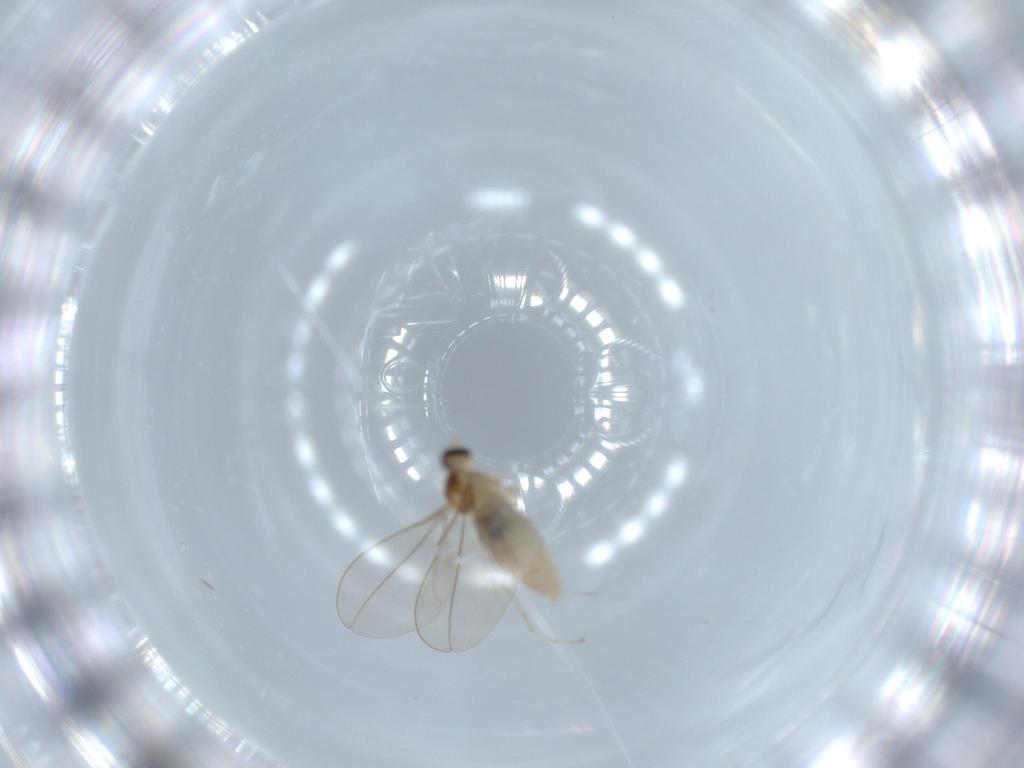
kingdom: Animalia
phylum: Arthropoda
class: Insecta
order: Diptera
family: Cecidomyiidae
